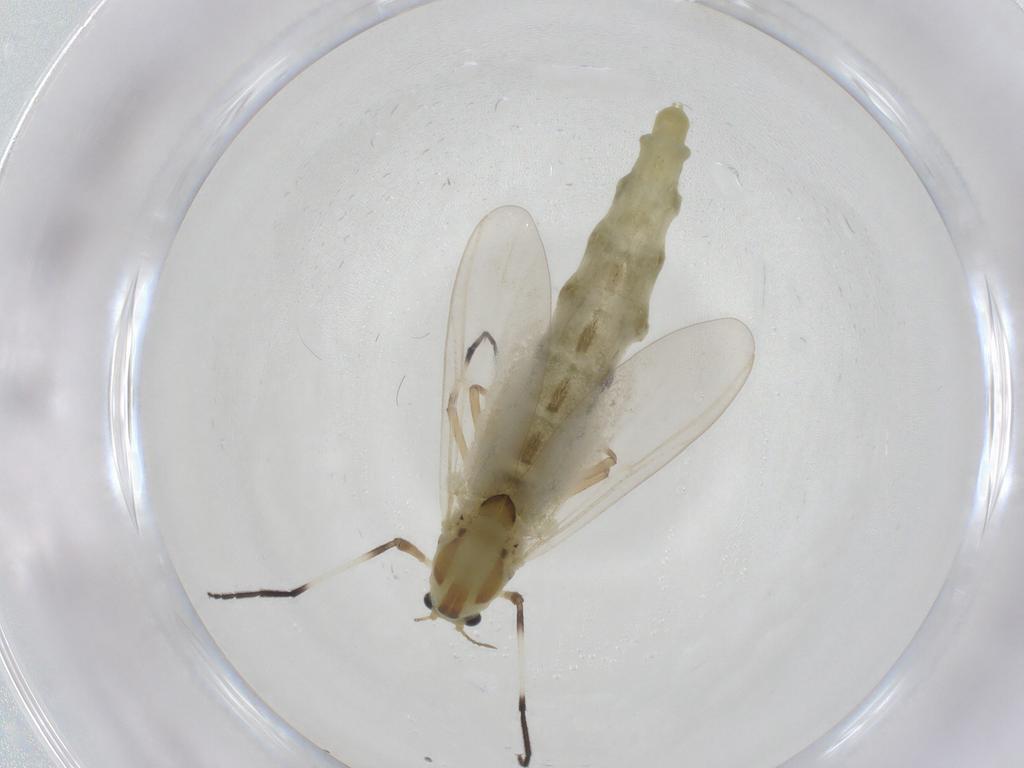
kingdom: Animalia
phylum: Arthropoda
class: Insecta
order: Diptera
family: Chironomidae
